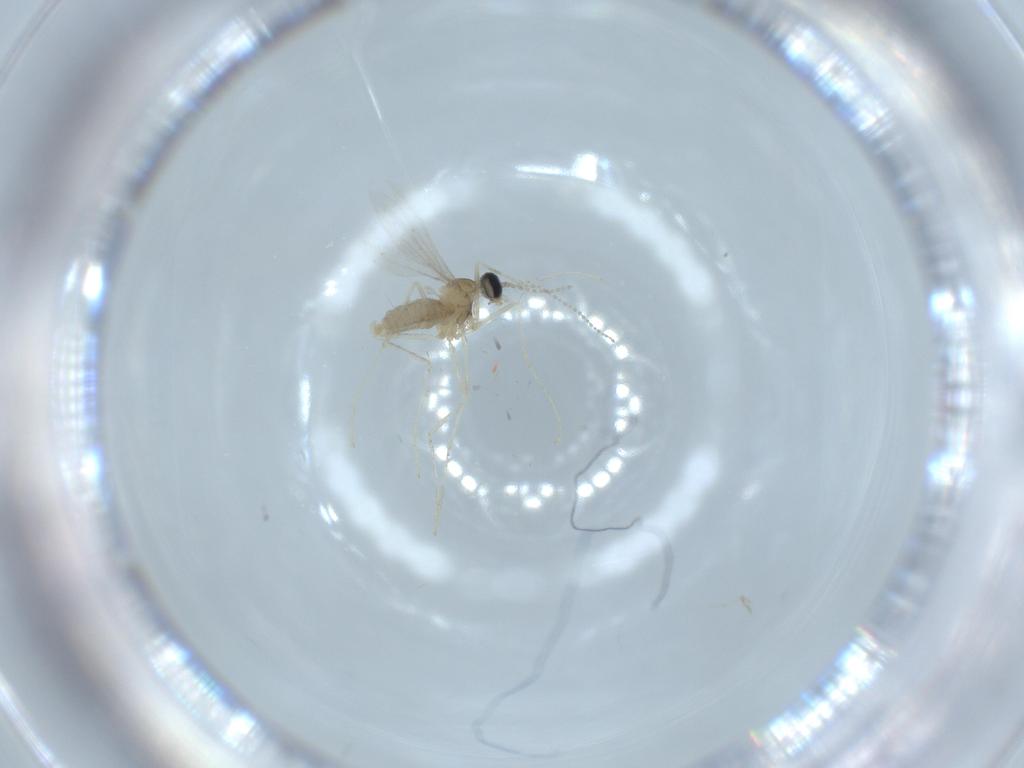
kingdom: Animalia
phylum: Arthropoda
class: Insecta
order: Diptera
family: Cecidomyiidae
